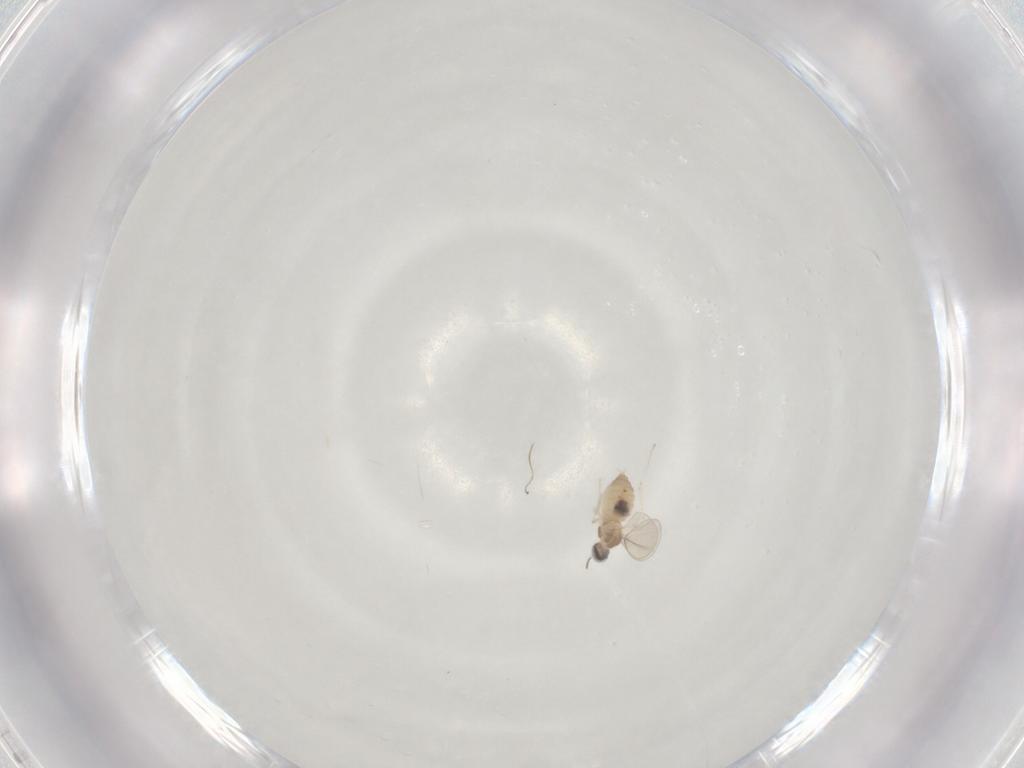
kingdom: Animalia
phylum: Arthropoda
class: Insecta
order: Diptera
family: Cecidomyiidae
